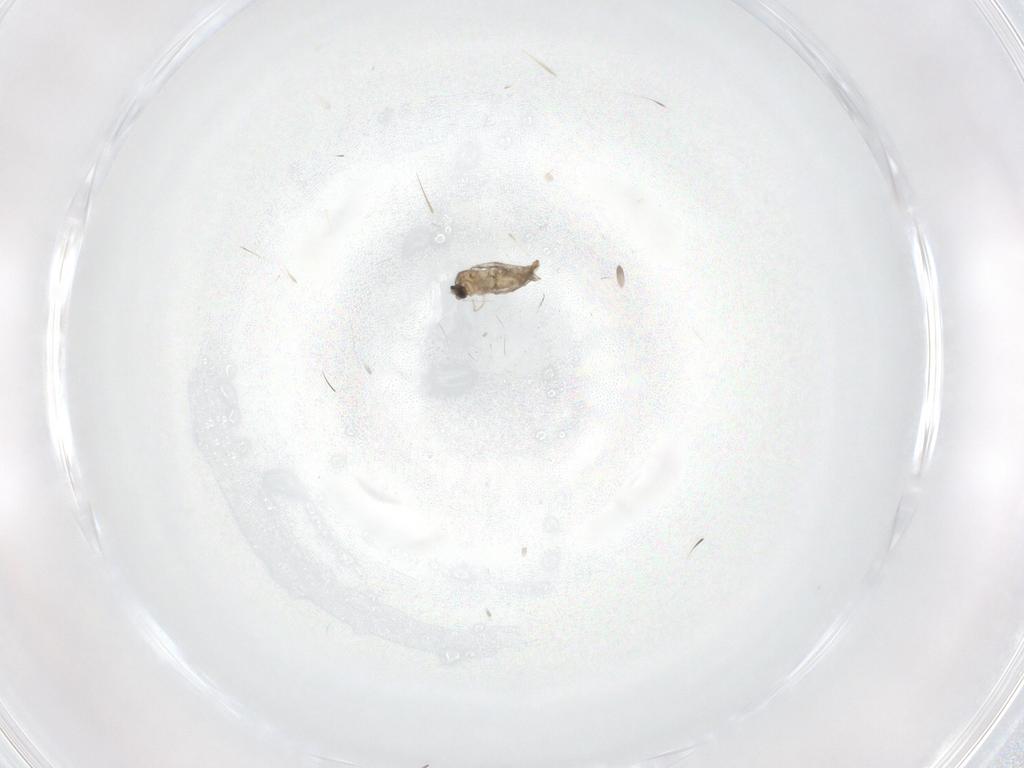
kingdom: Animalia
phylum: Arthropoda
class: Insecta
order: Diptera
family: Cecidomyiidae
